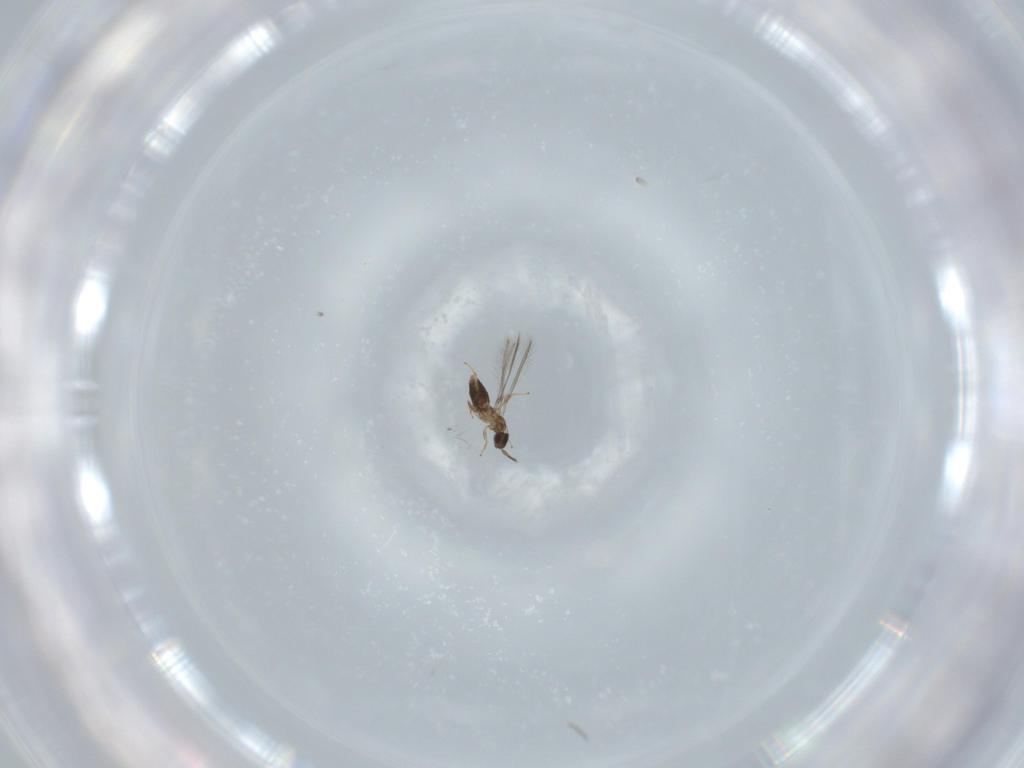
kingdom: Animalia
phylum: Arthropoda
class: Insecta
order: Hymenoptera
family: Mymaridae
